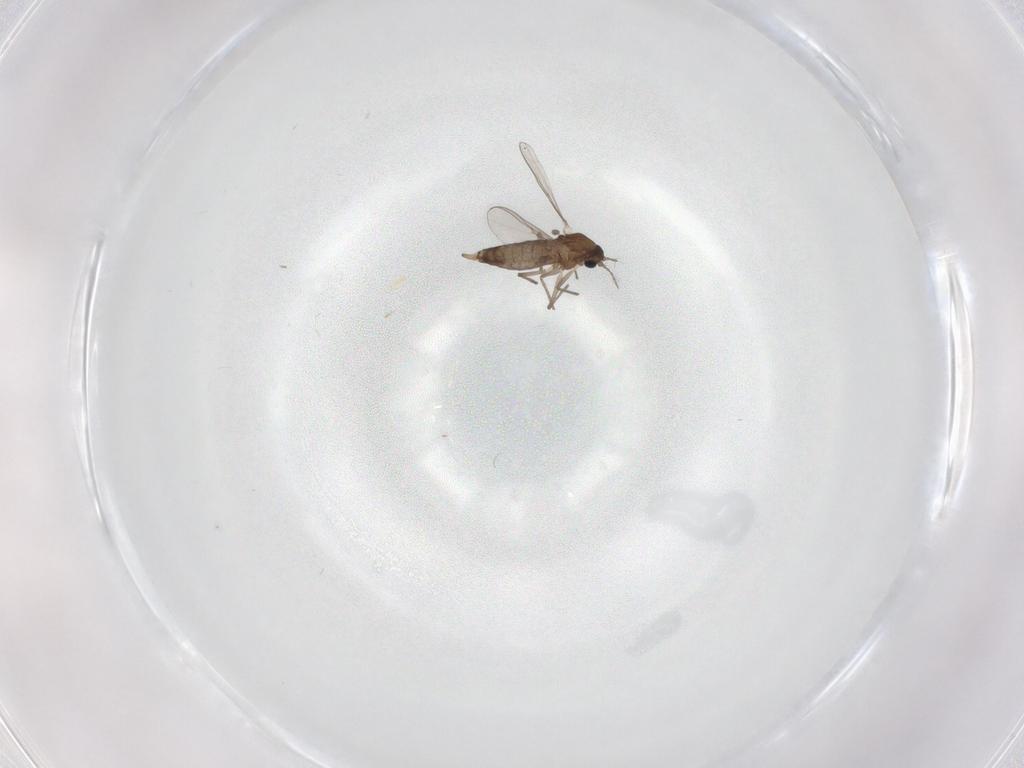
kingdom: Animalia
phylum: Arthropoda
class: Insecta
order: Diptera
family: Chironomidae
